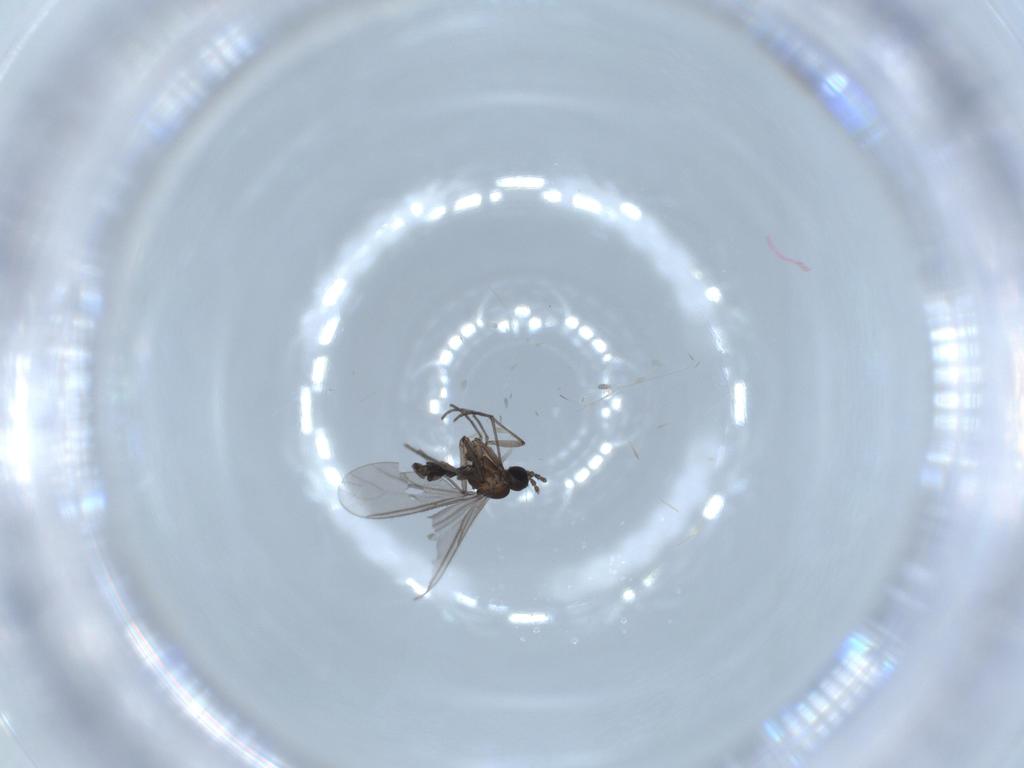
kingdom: Animalia
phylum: Arthropoda
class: Insecta
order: Diptera
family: Sciaridae
